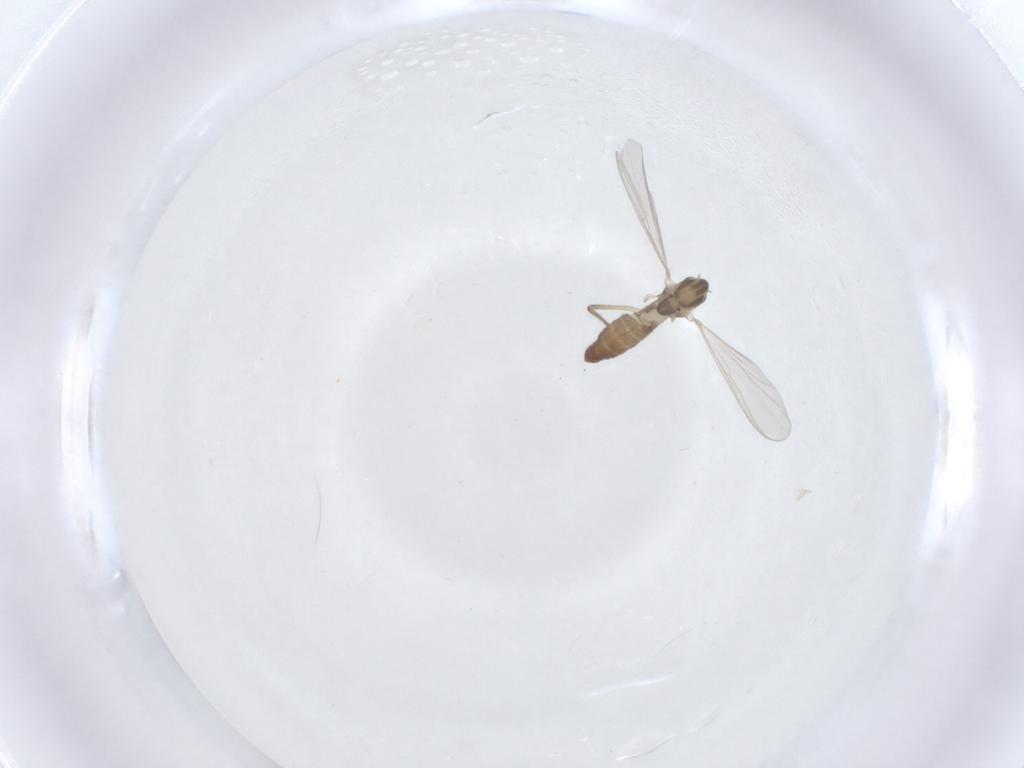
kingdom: Animalia
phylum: Arthropoda
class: Insecta
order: Diptera
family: Chironomidae
